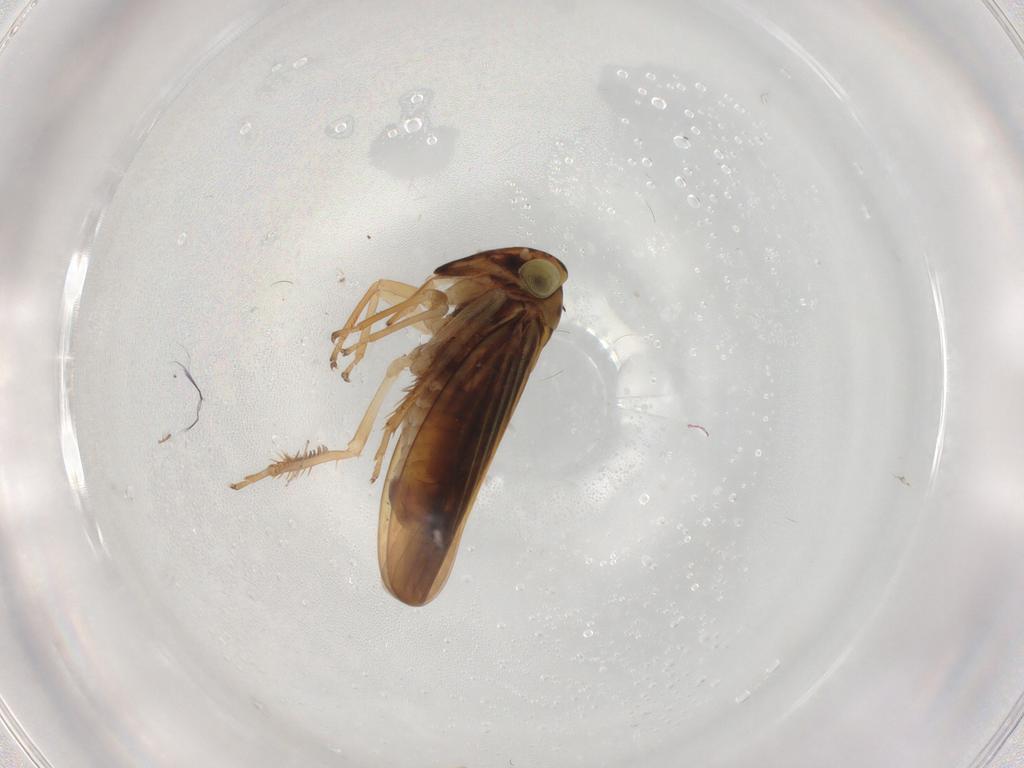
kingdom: Animalia
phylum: Arthropoda
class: Insecta
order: Hemiptera
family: Cicadellidae
